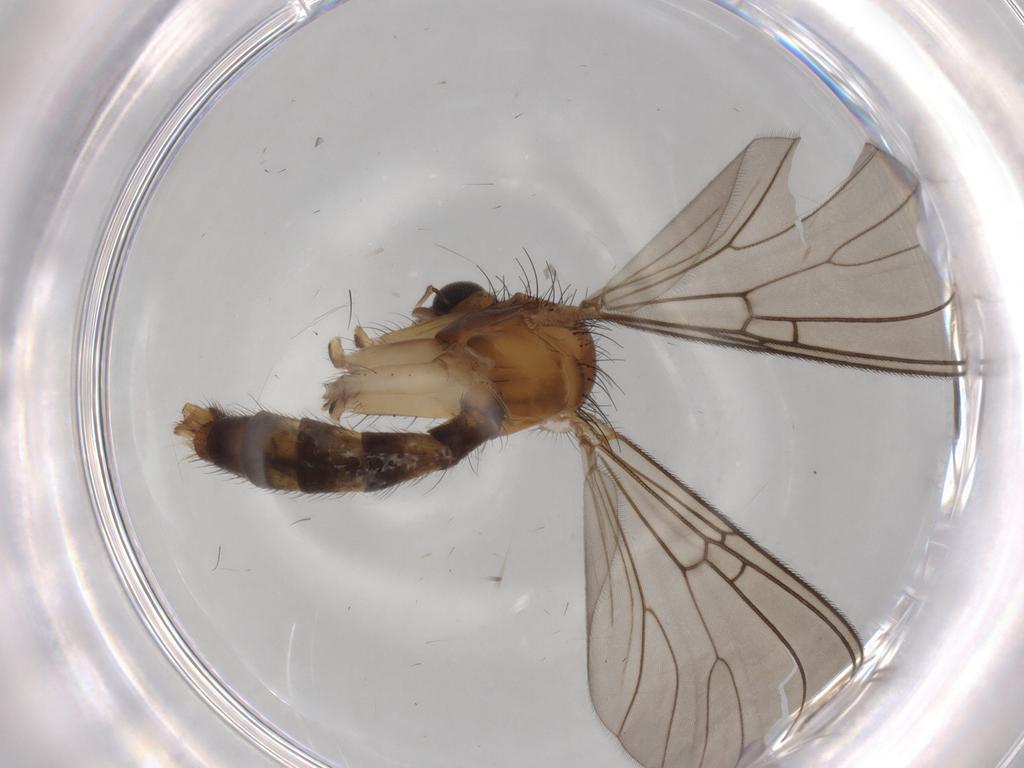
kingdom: Animalia
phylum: Arthropoda
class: Insecta
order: Diptera
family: Mycetophilidae
